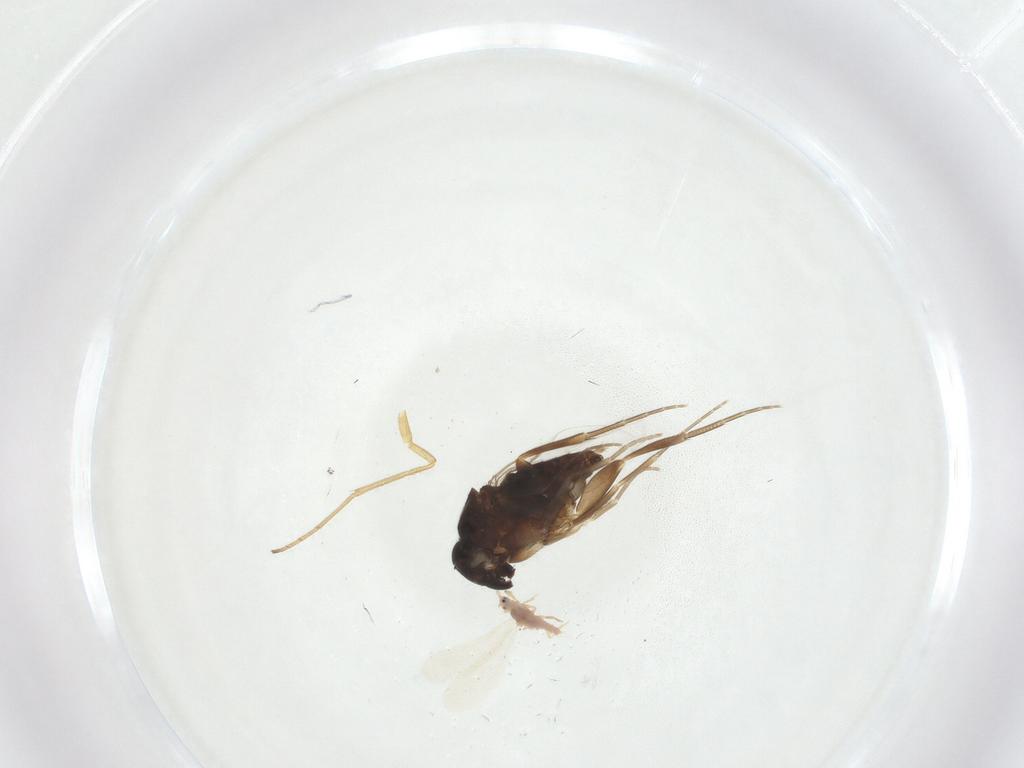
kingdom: Animalia
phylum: Arthropoda
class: Insecta
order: Diptera
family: Phoridae
